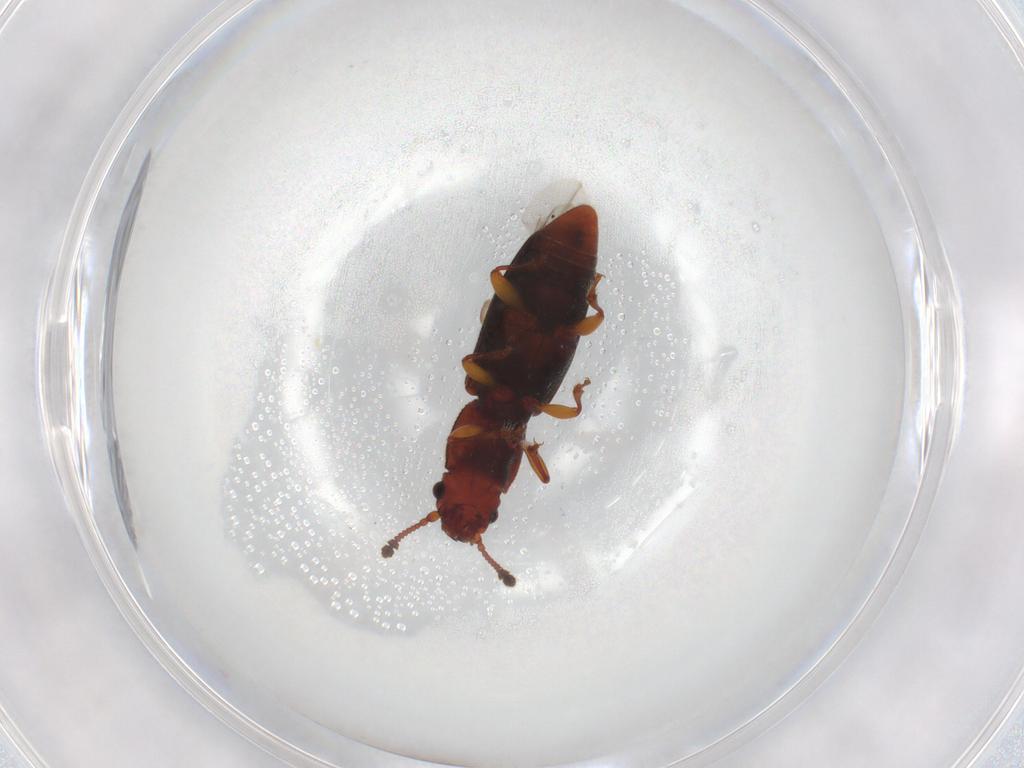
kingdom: Animalia
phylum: Arthropoda
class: Insecta
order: Coleoptera
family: Monotomidae
